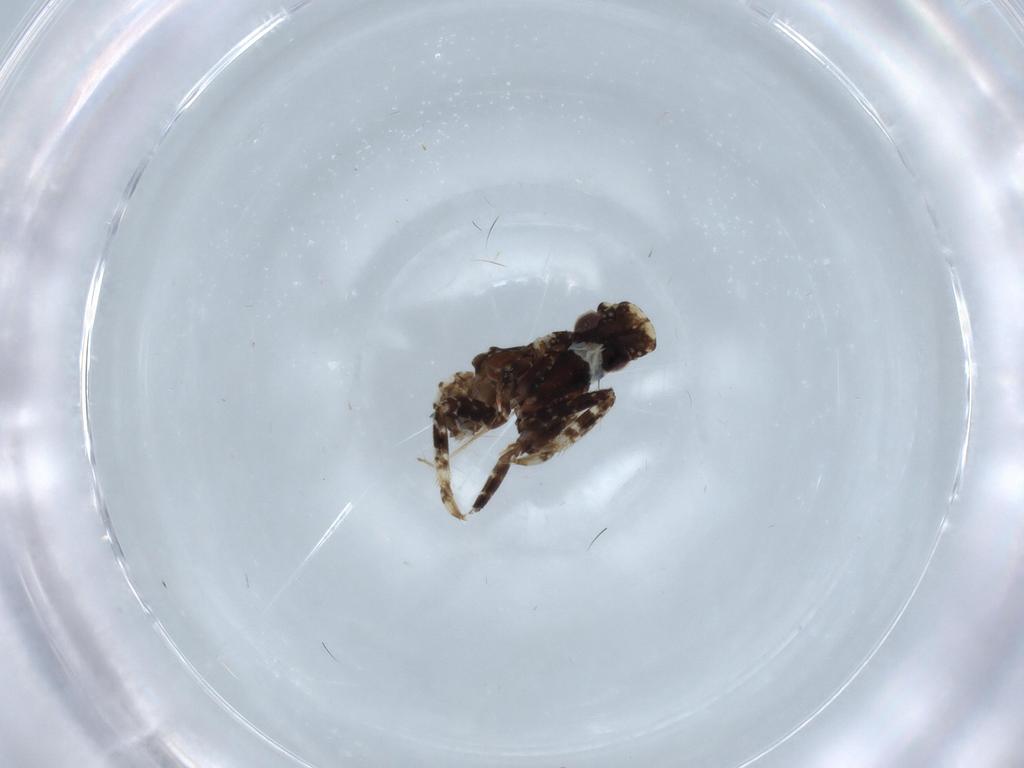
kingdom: Animalia
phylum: Arthropoda
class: Insecta
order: Hemiptera
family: Fulgoridae
